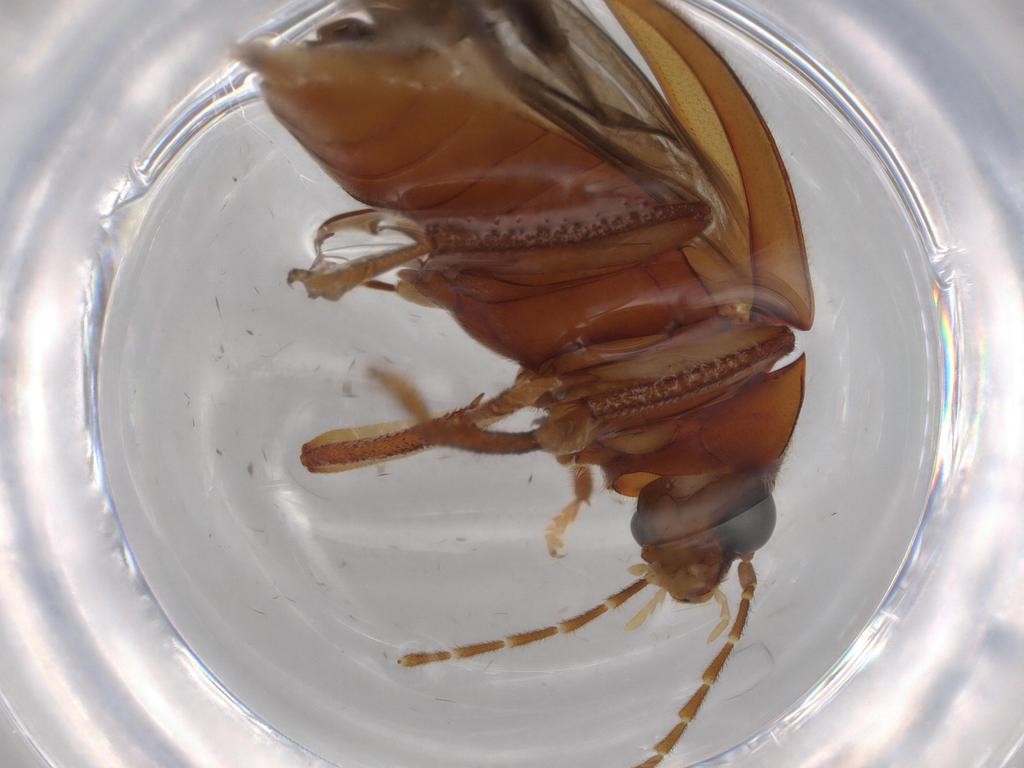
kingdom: Animalia
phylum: Arthropoda
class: Insecta
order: Coleoptera
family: Ptilodactylidae
